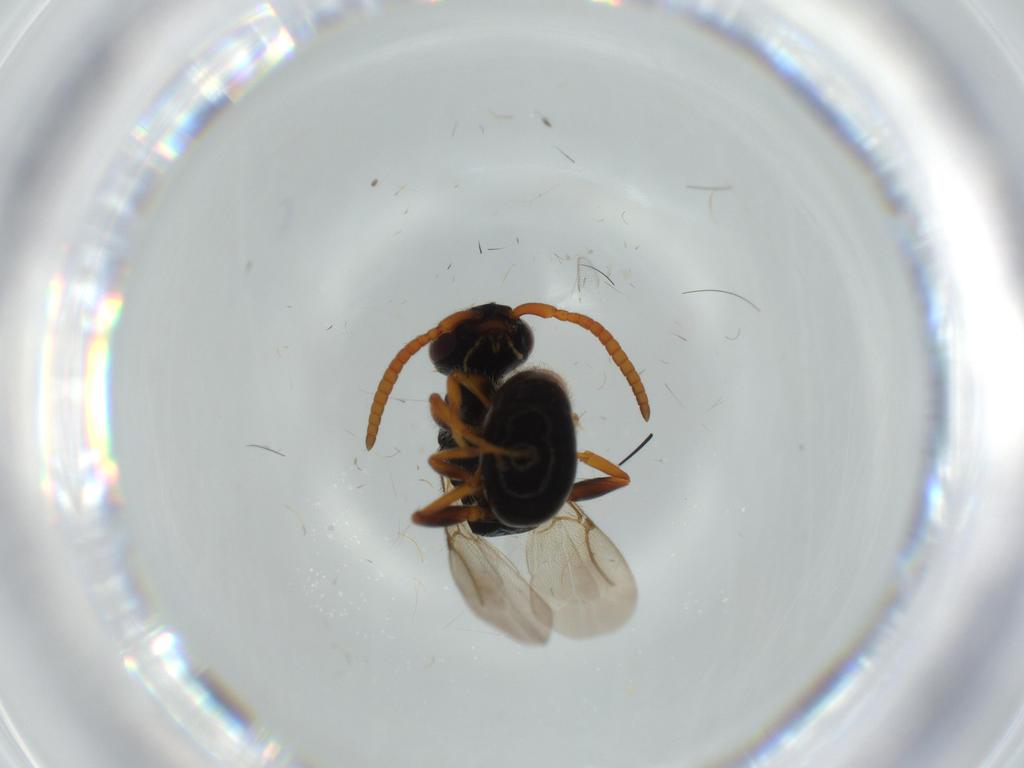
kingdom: Animalia
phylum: Arthropoda
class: Insecta
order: Hymenoptera
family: Bethylidae
